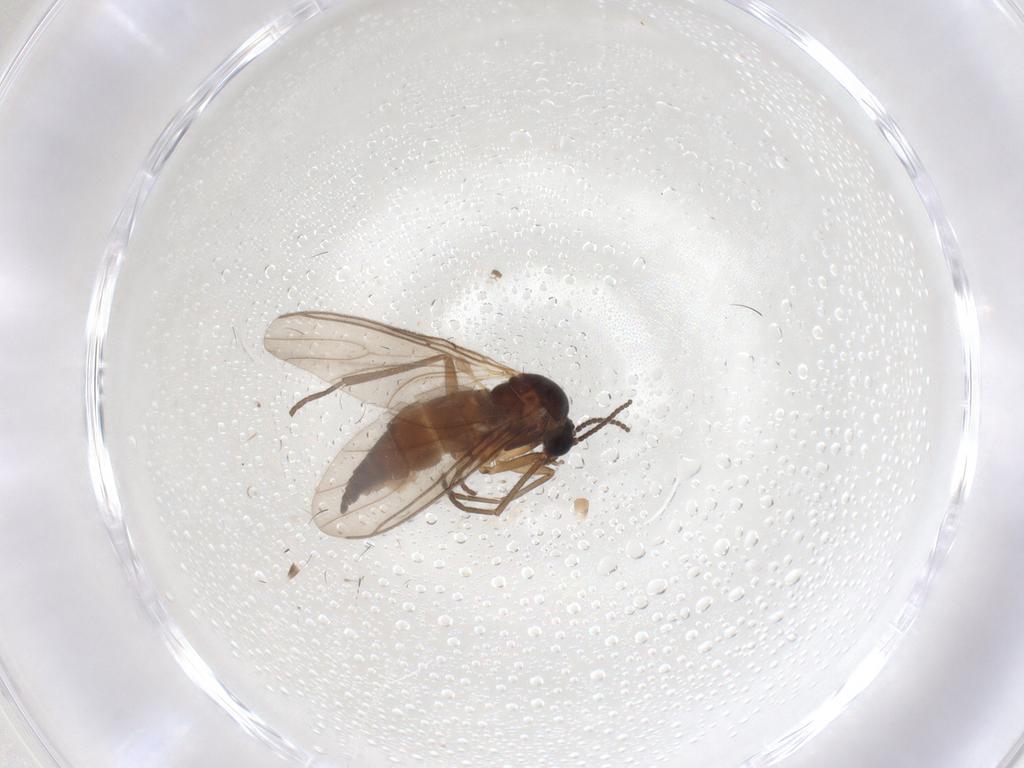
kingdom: Animalia
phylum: Arthropoda
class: Insecta
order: Diptera
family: Sciaridae
